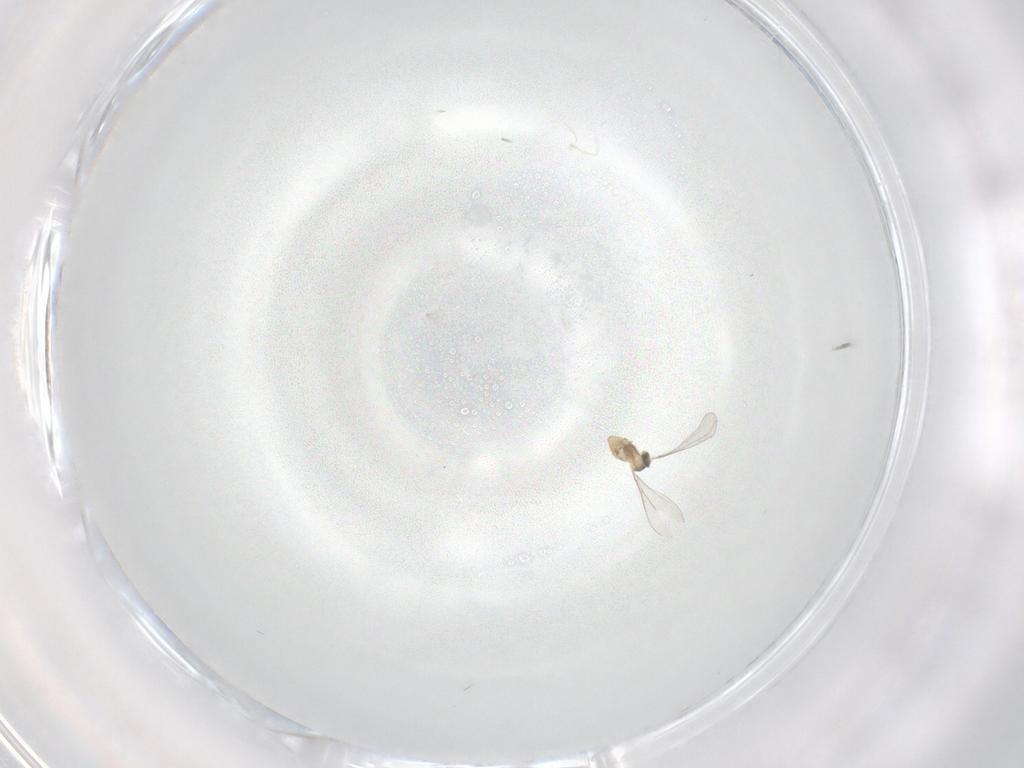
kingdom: Animalia
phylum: Arthropoda
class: Insecta
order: Diptera
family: Cecidomyiidae
